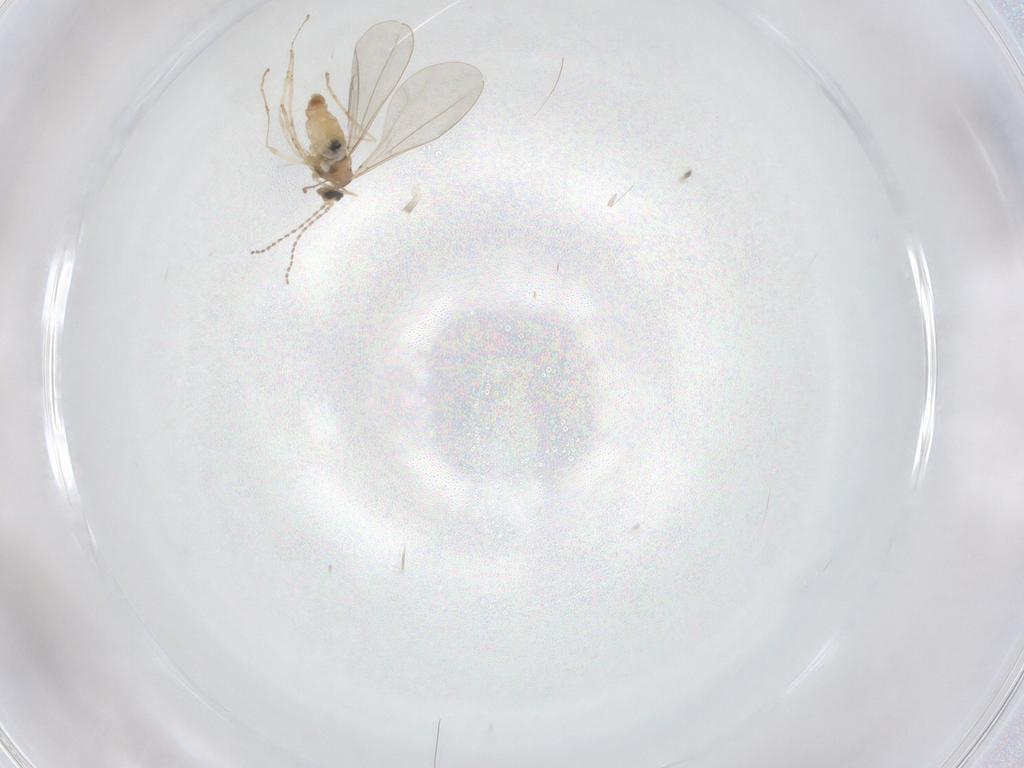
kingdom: Animalia
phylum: Arthropoda
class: Insecta
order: Diptera
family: Cecidomyiidae
